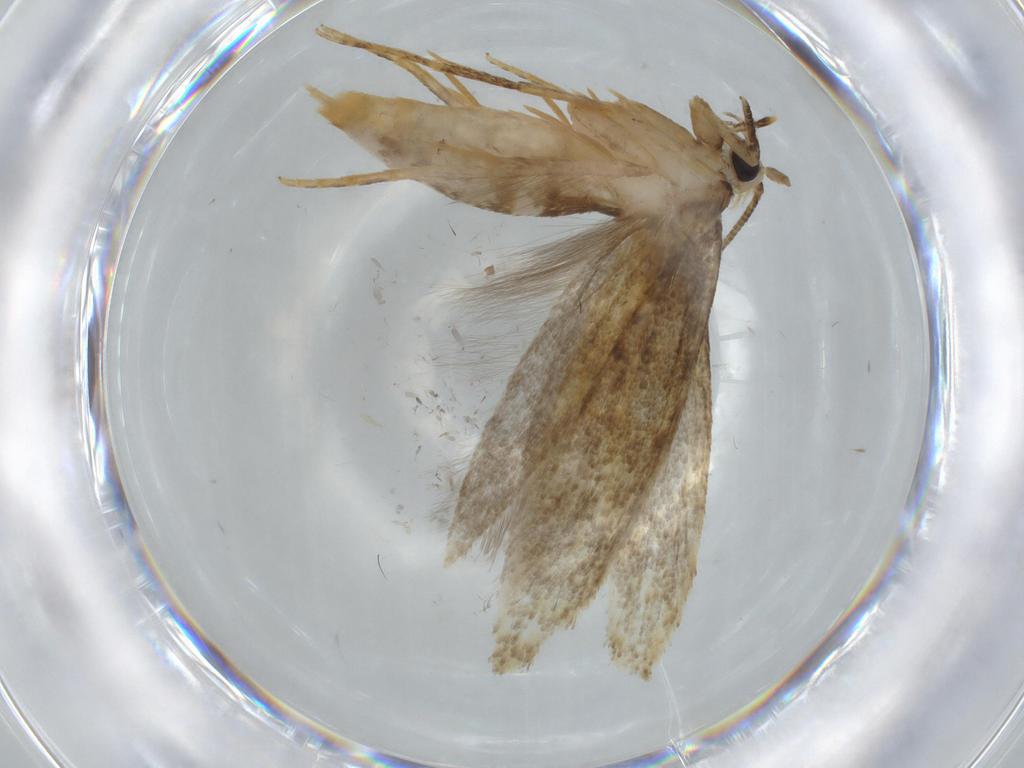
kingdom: Animalia
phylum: Arthropoda
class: Insecta
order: Lepidoptera
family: Tineidae
